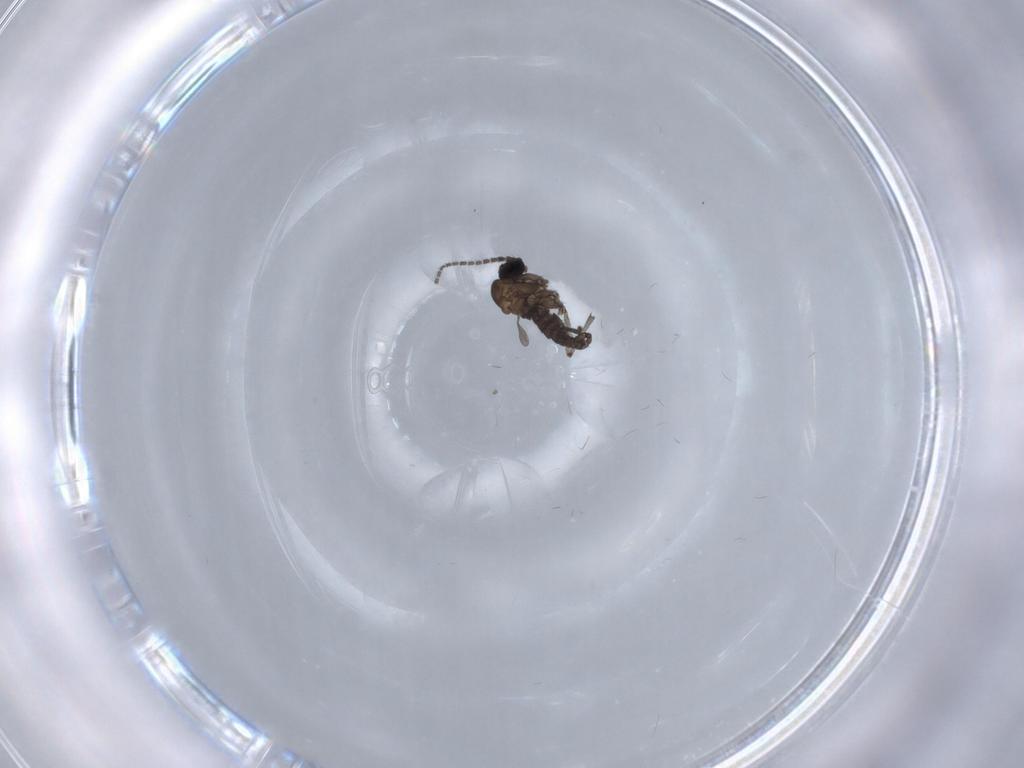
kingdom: Animalia
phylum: Arthropoda
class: Insecta
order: Diptera
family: Sciaridae
